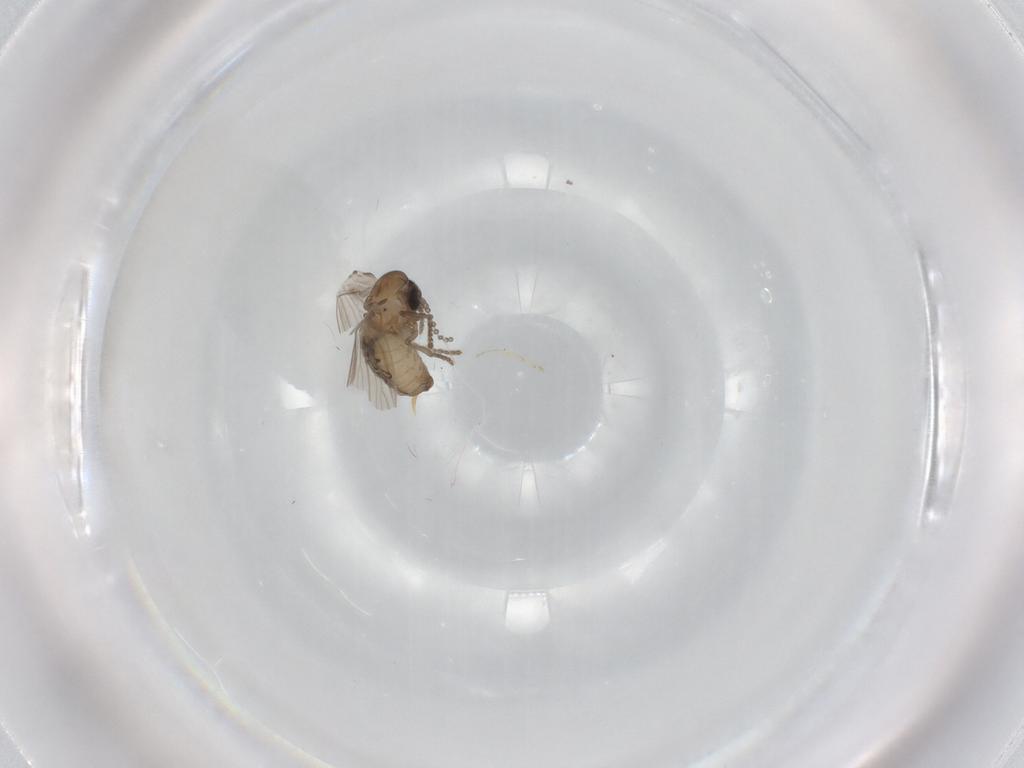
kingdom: Animalia
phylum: Arthropoda
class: Insecta
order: Diptera
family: Psychodidae
